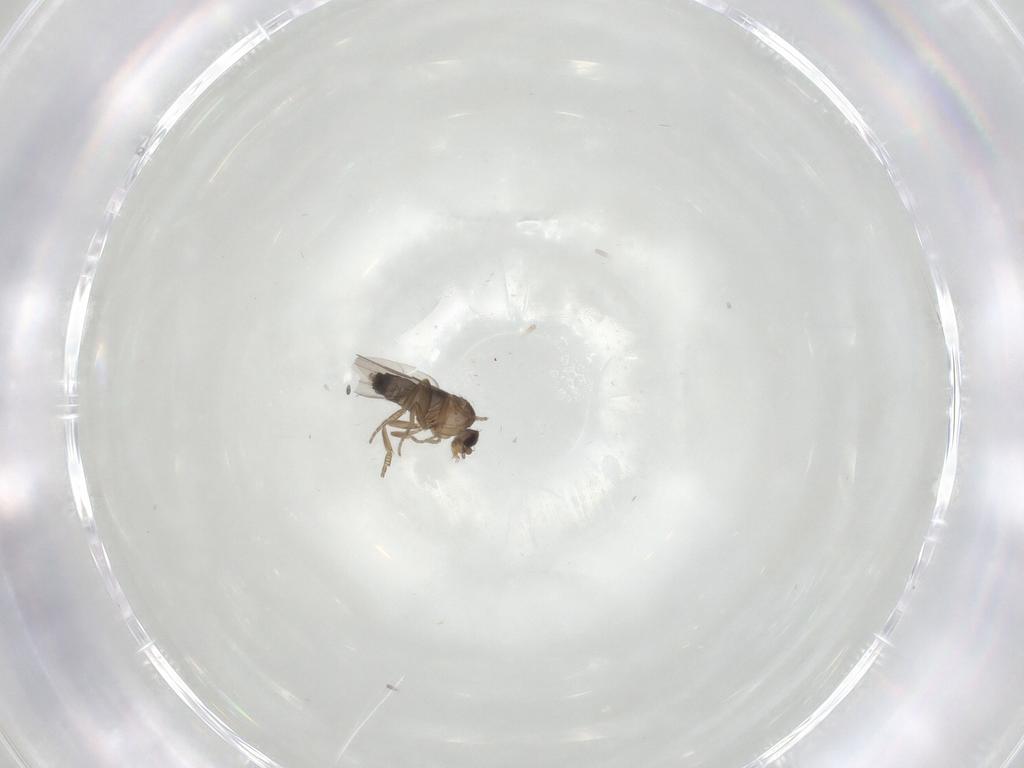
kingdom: Animalia
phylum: Arthropoda
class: Insecta
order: Diptera
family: Phoridae
